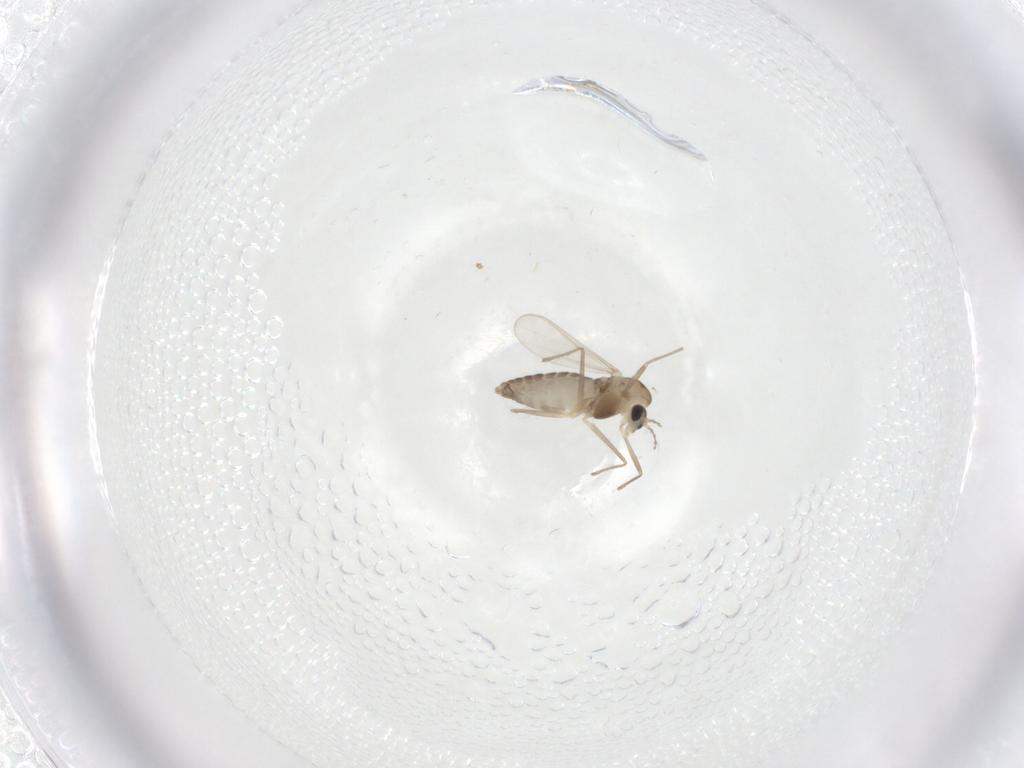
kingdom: Animalia
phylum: Arthropoda
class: Insecta
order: Diptera
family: Chironomidae
